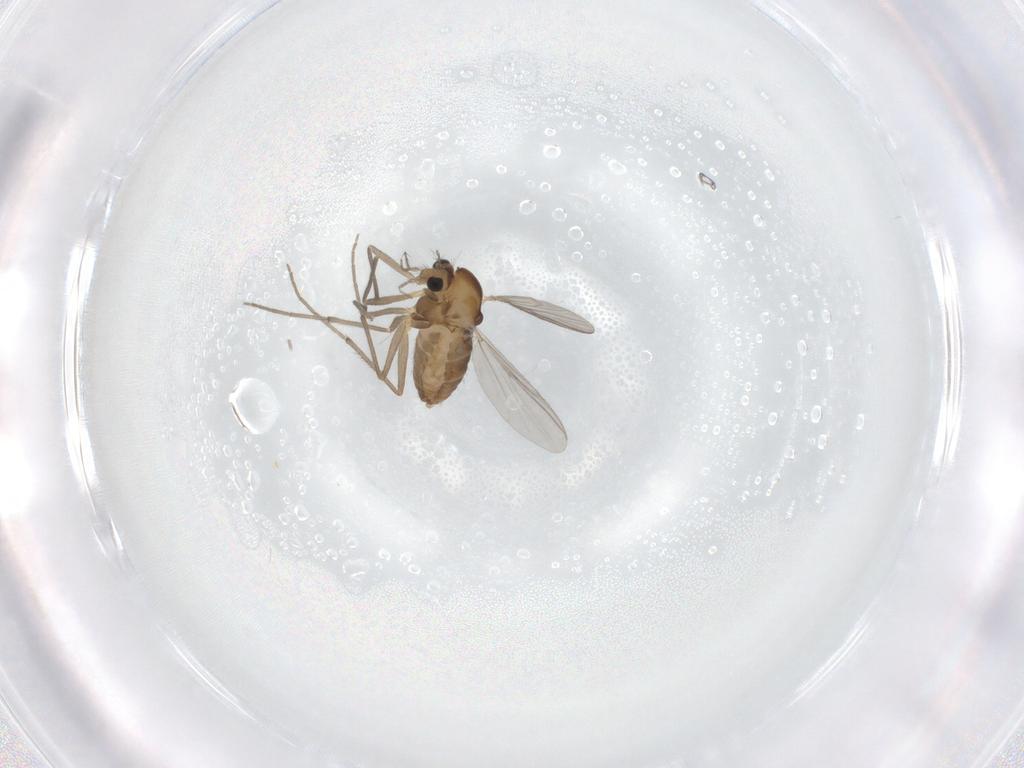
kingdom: Animalia
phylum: Arthropoda
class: Insecta
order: Diptera
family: Chironomidae
